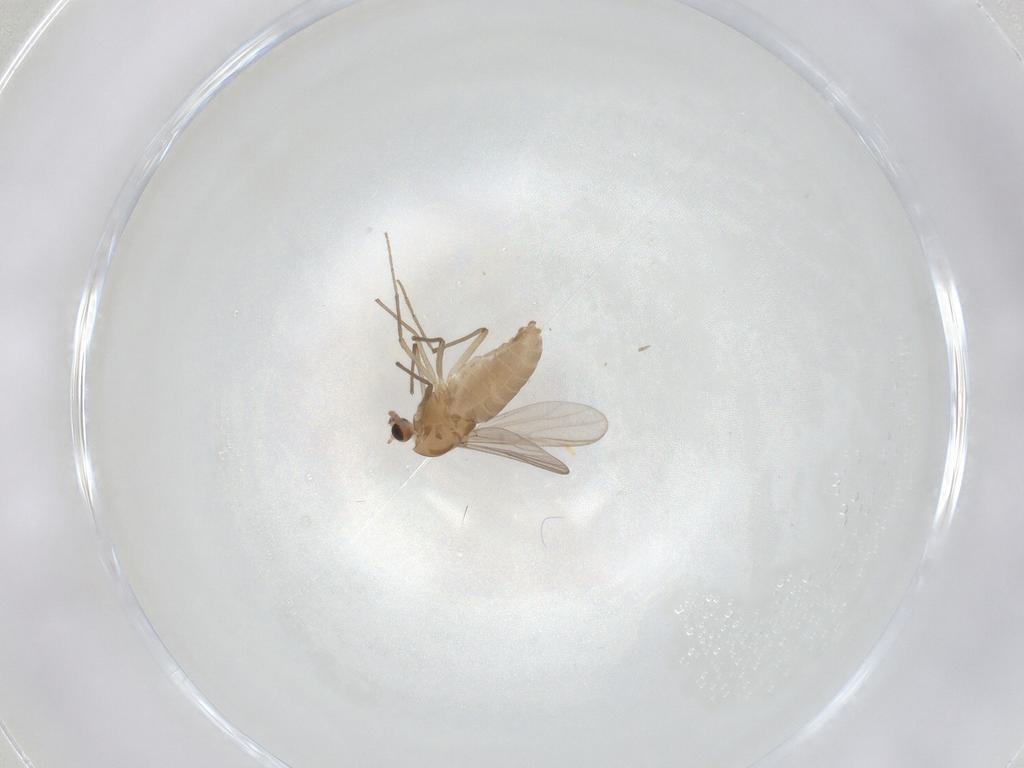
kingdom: Animalia
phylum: Arthropoda
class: Insecta
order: Diptera
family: Chironomidae
